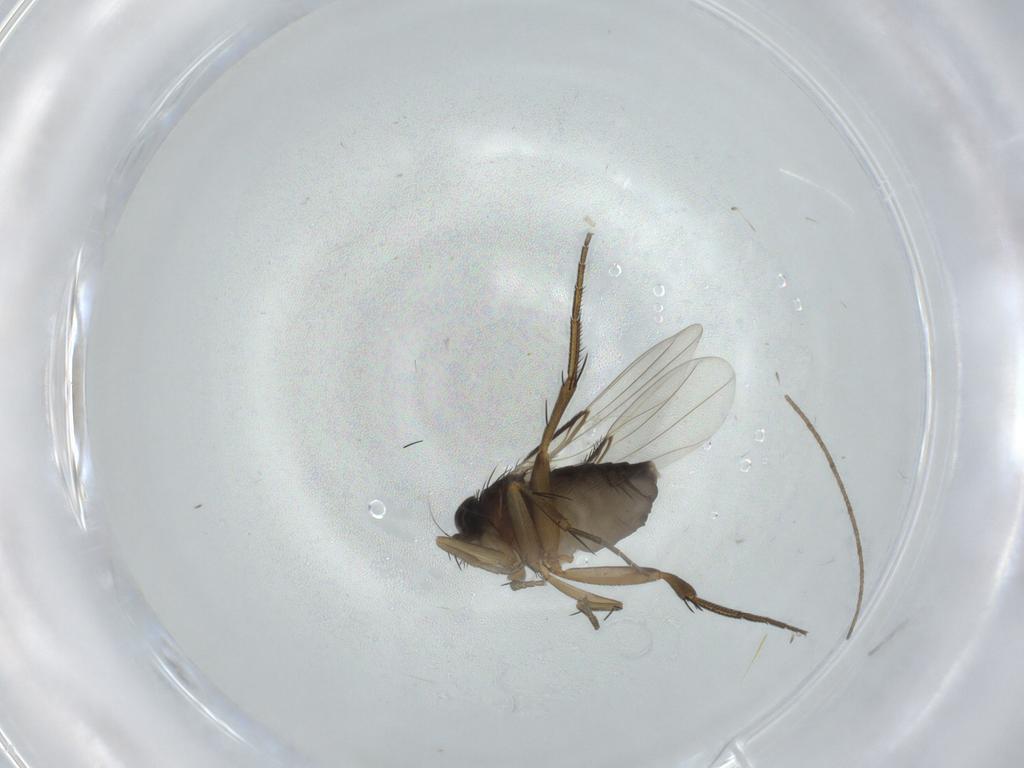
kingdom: Animalia
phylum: Arthropoda
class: Insecta
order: Diptera
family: Phoridae
